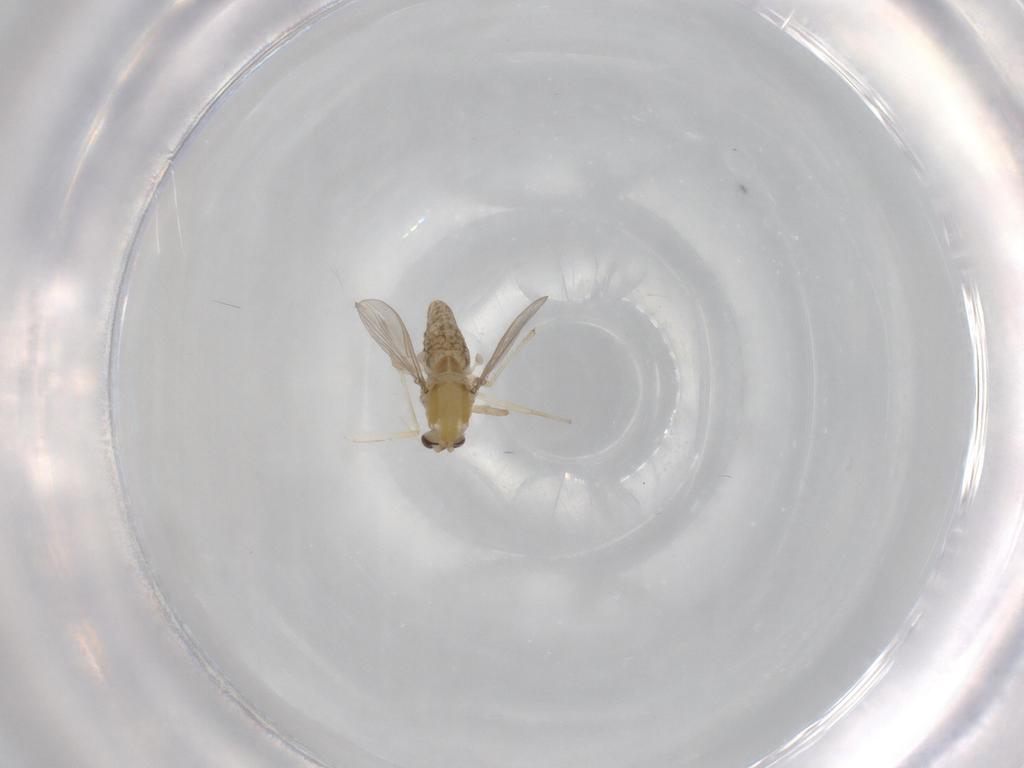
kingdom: Animalia
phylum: Arthropoda
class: Insecta
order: Diptera
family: Chironomidae
